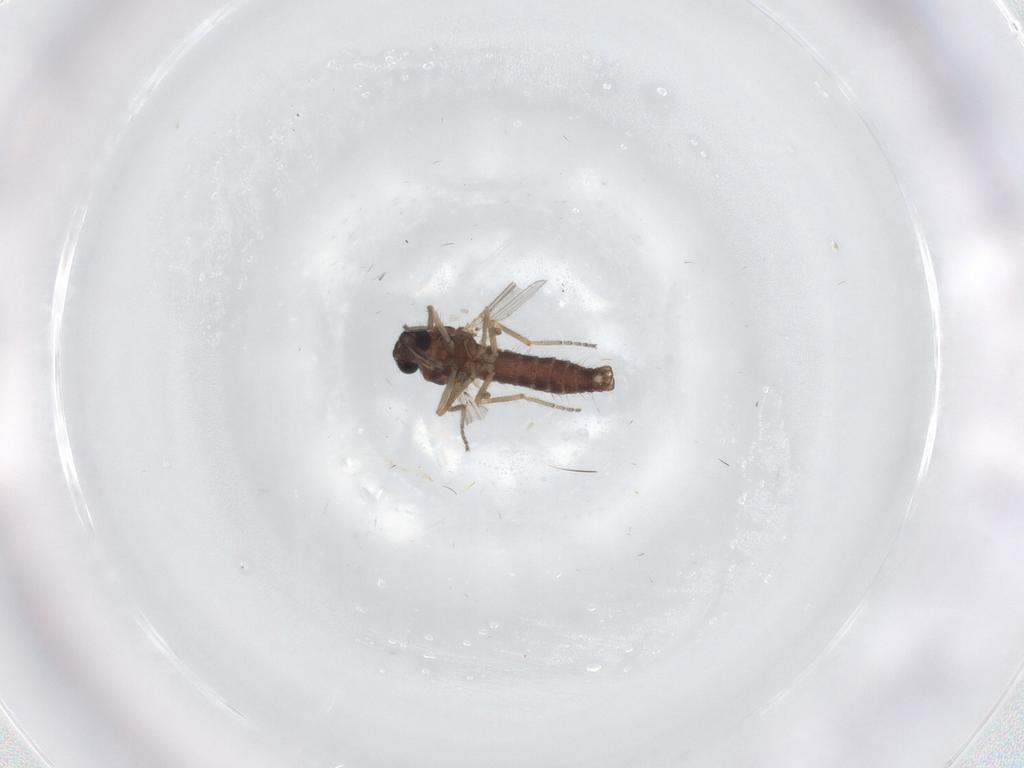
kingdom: Animalia
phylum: Arthropoda
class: Insecta
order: Diptera
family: Ceratopogonidae
